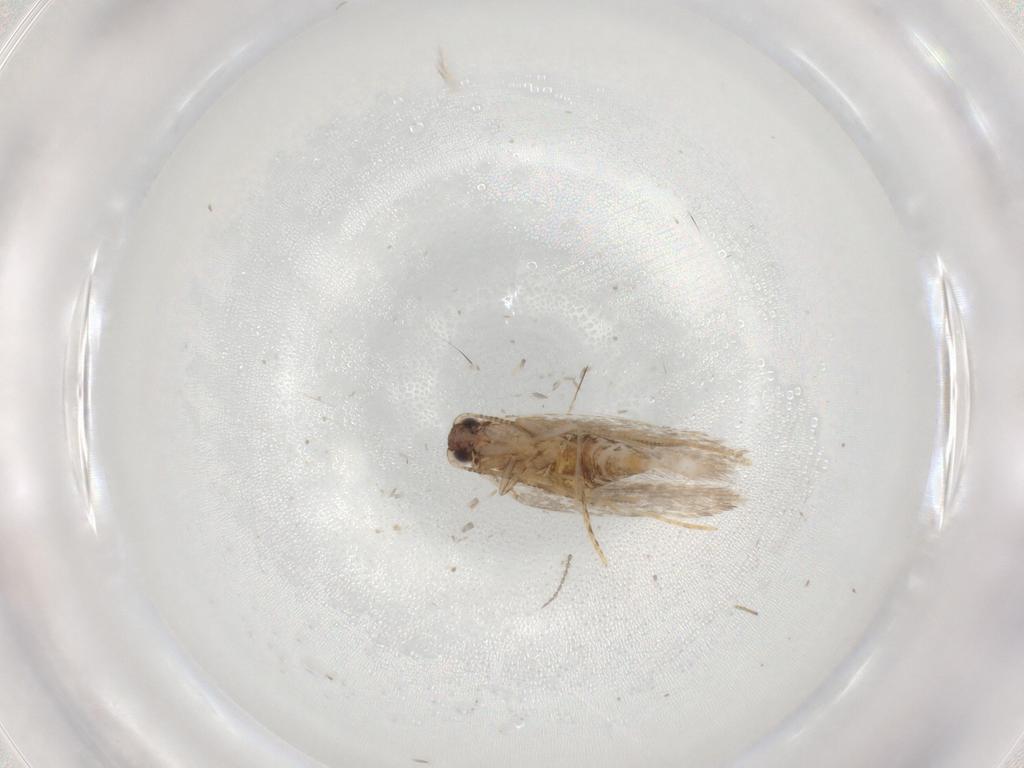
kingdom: Animalia
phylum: Arthropoda
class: Insecta
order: Lepidoptera
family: Tineidae
